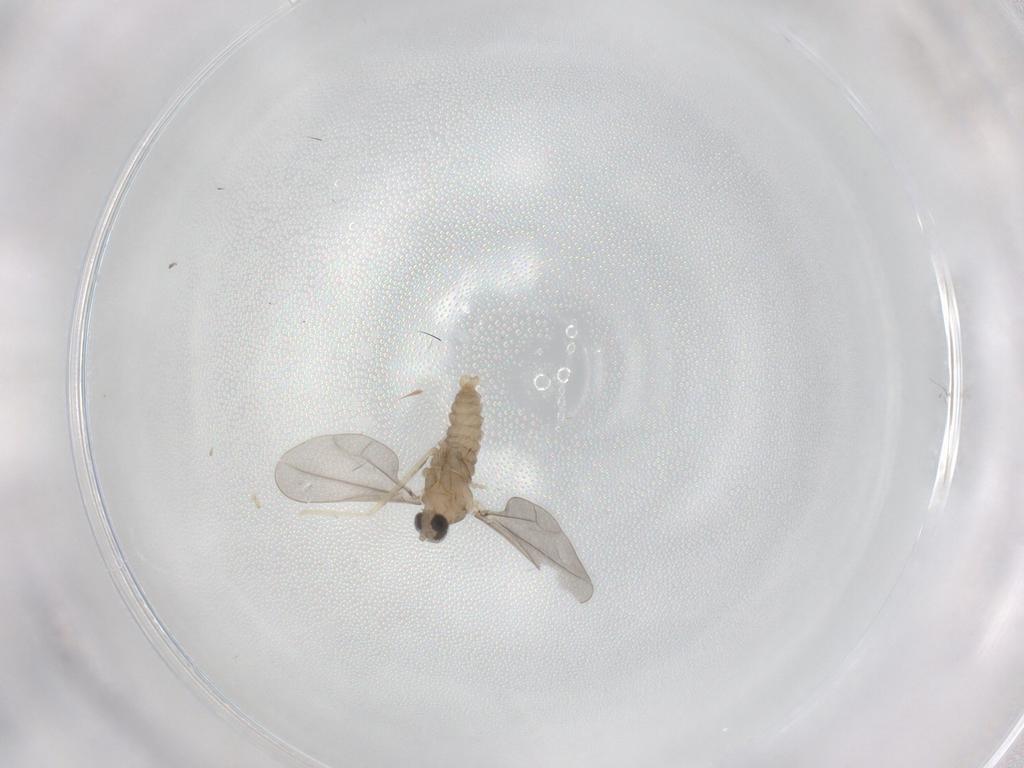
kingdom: Animalia
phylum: Arthropoda
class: Insecta
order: Diptera
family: Cecidomyiidae
